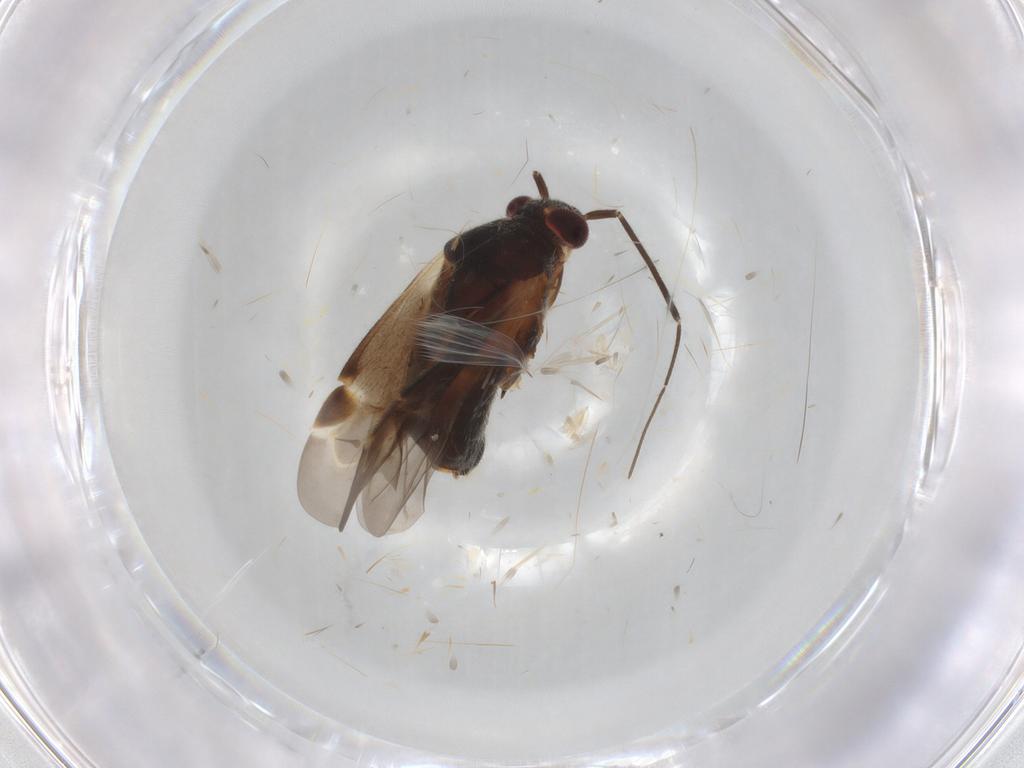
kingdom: Animalia
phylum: Arthropoda
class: Insecta
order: Hemiptera
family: Miridae
